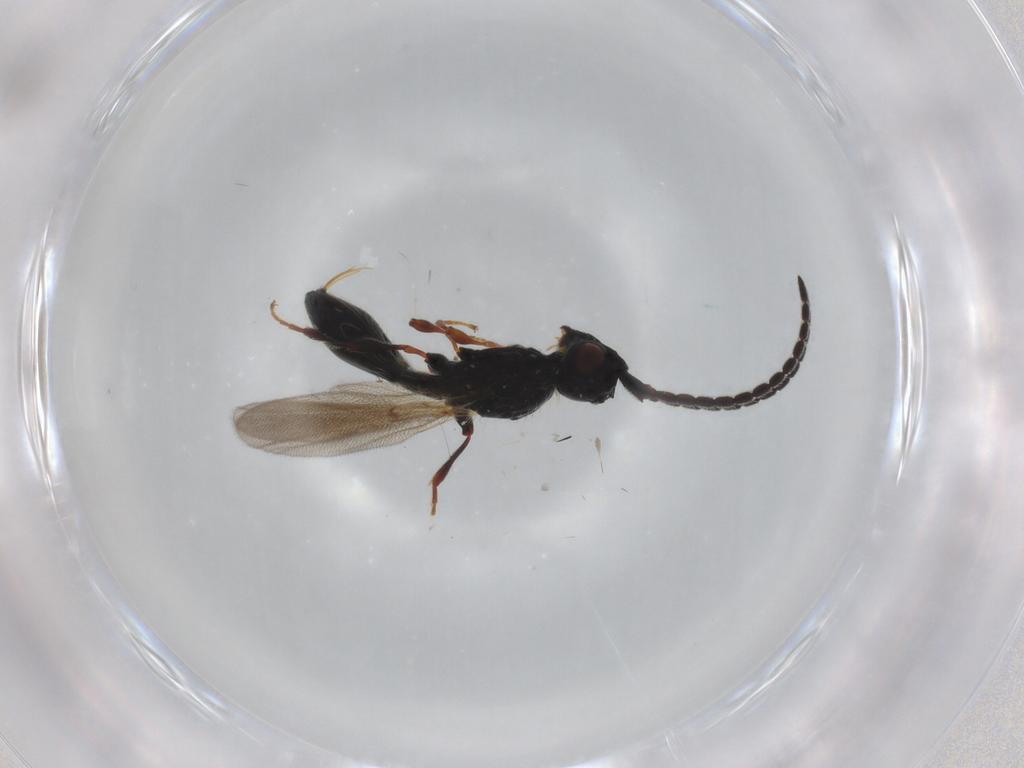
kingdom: Animalia
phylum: Arthropoda
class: Insecta
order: Hymenoptera
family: Diapriidae
